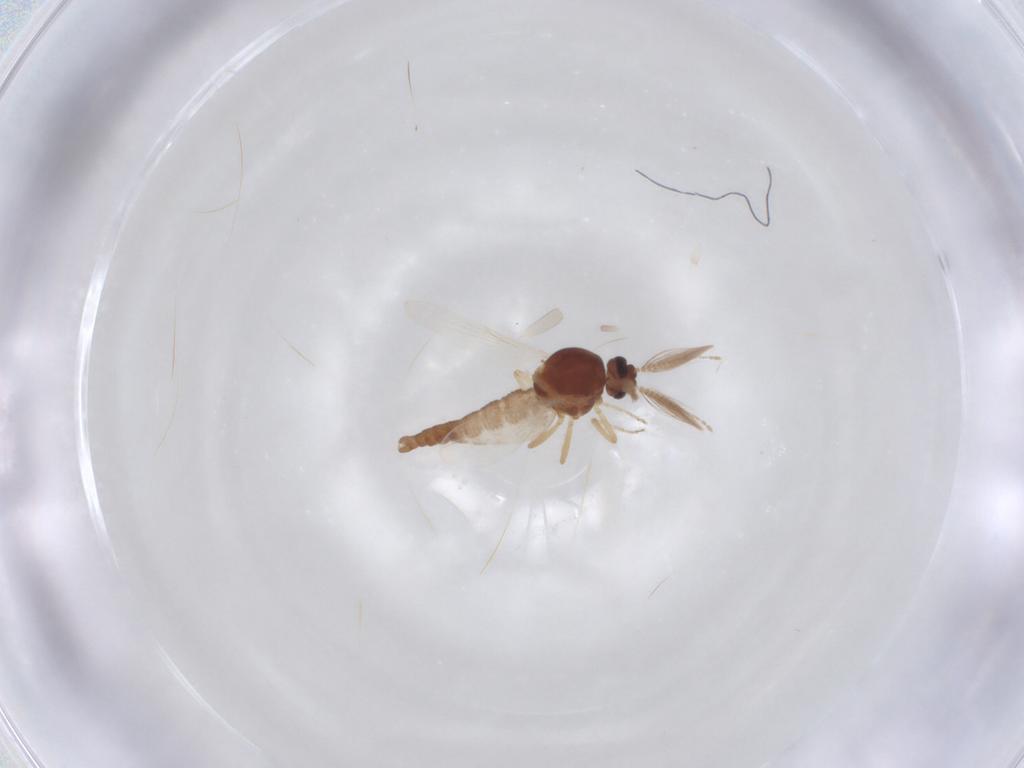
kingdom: Animalia
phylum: Arthropoda
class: Insecta
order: Diptera
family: Ceratopogonidae
